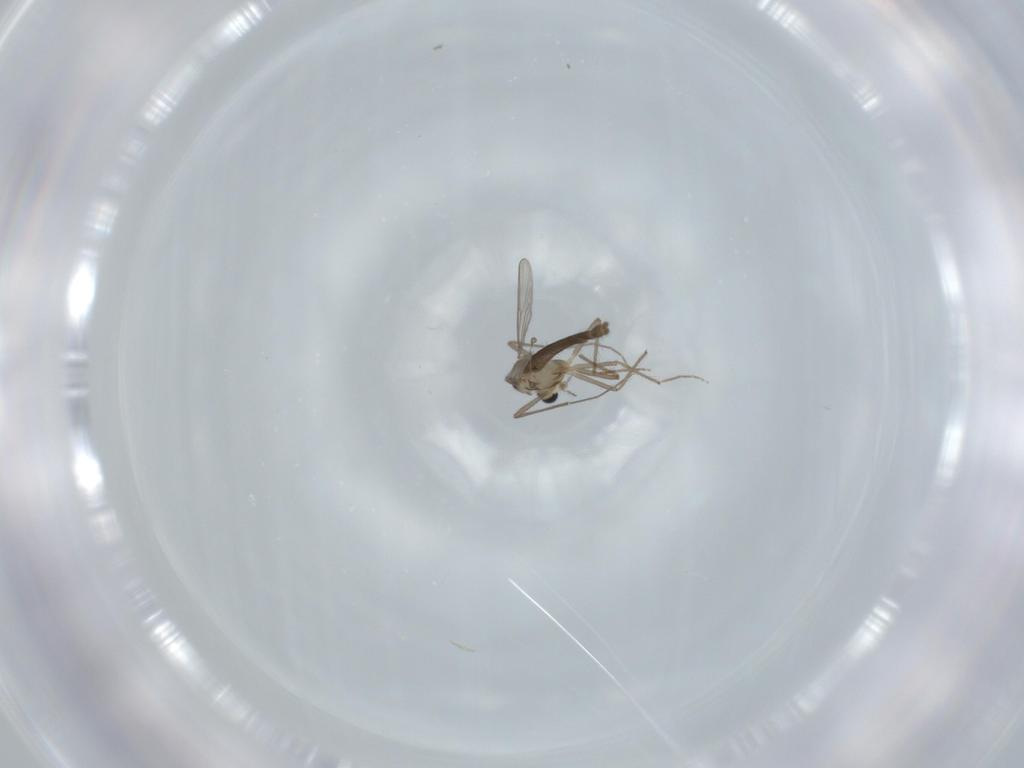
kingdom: Animalia
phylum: Arthropoda
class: Insecta
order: Diptera
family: Chironomidae
